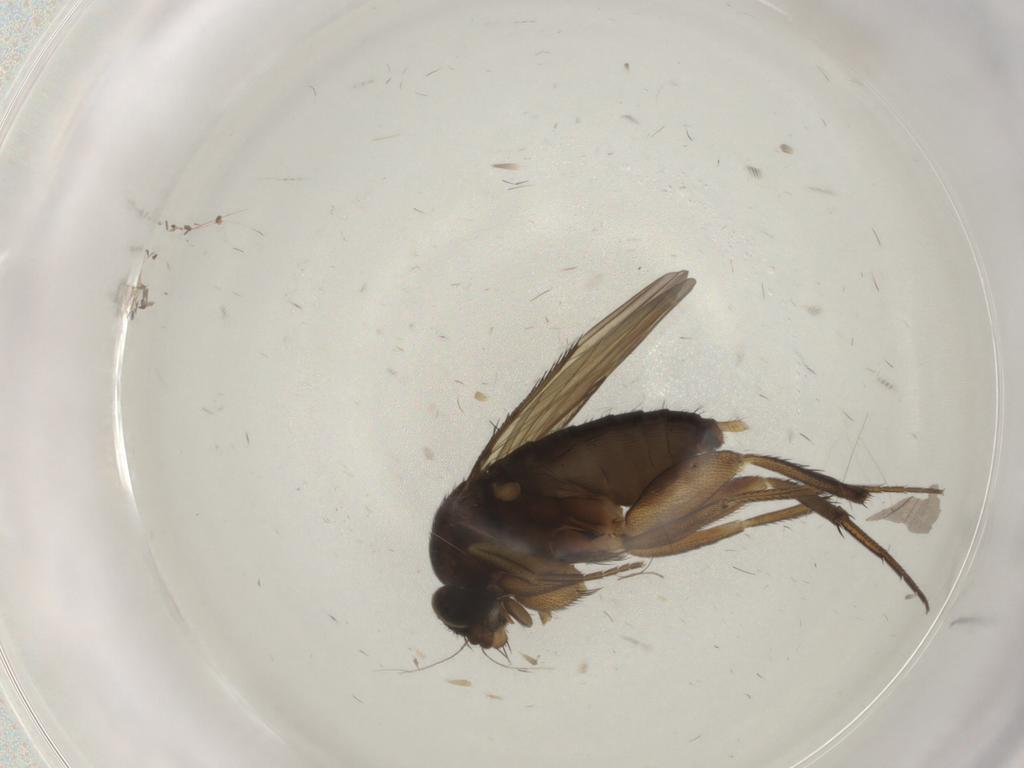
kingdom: Animalia
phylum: Arthropoda
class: Insecta
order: Diptera
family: Phoridae
